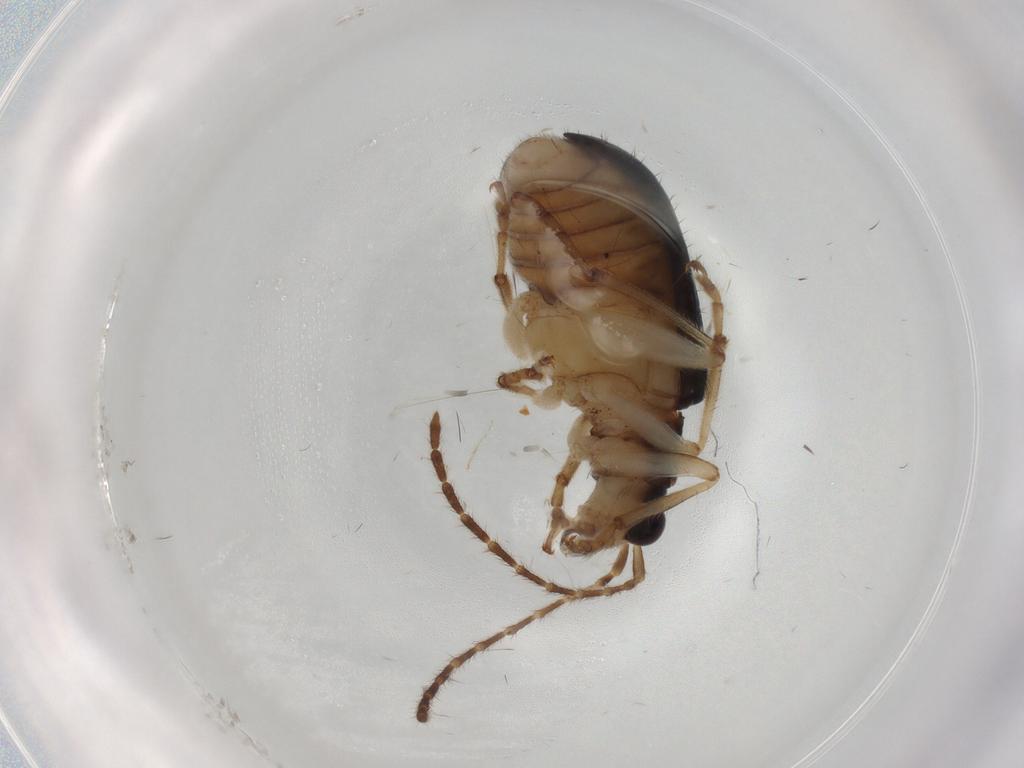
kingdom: Animalia
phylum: Arthropoda
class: Insecta
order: Coleoptera
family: Chrysomelidae
